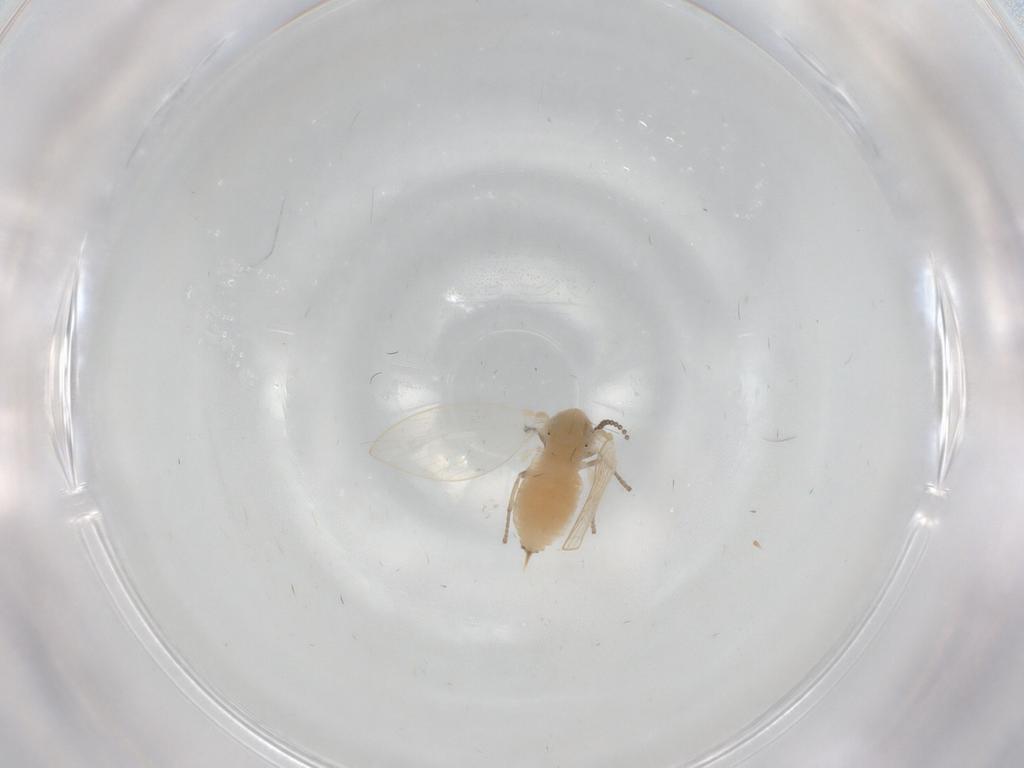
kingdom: Animalia
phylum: Arthropoda
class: Insecta
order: Diptera
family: Psychodidae
